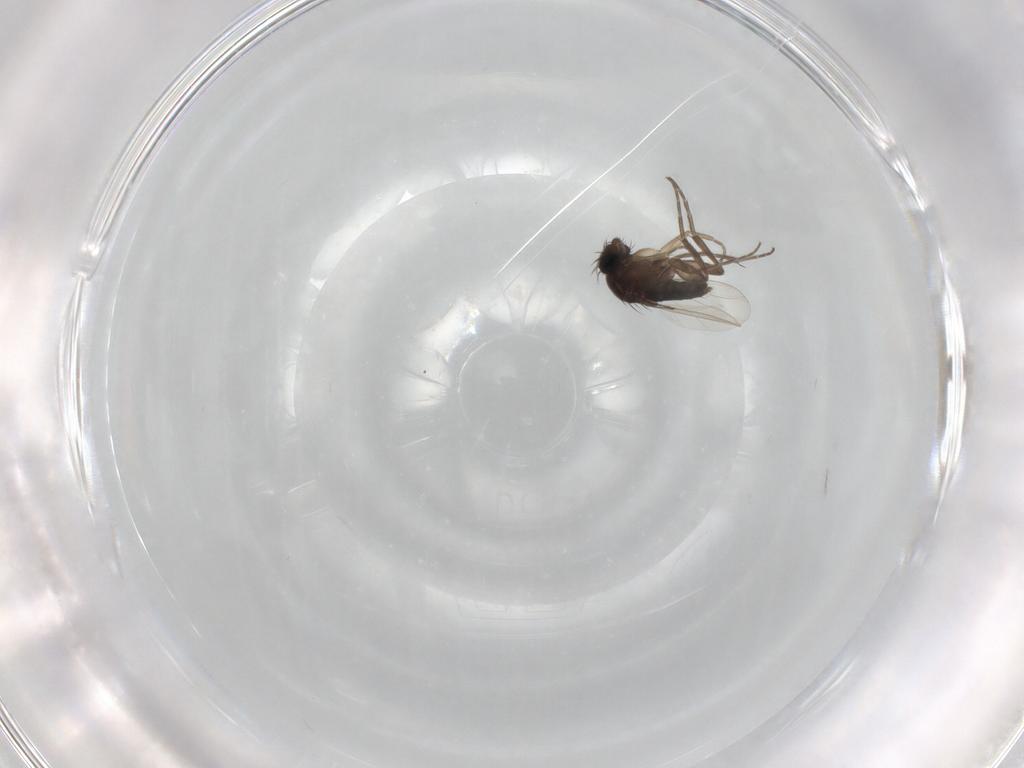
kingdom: Animalia
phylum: Arthropoda
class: Insecta
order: Diptera
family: Phoridae
